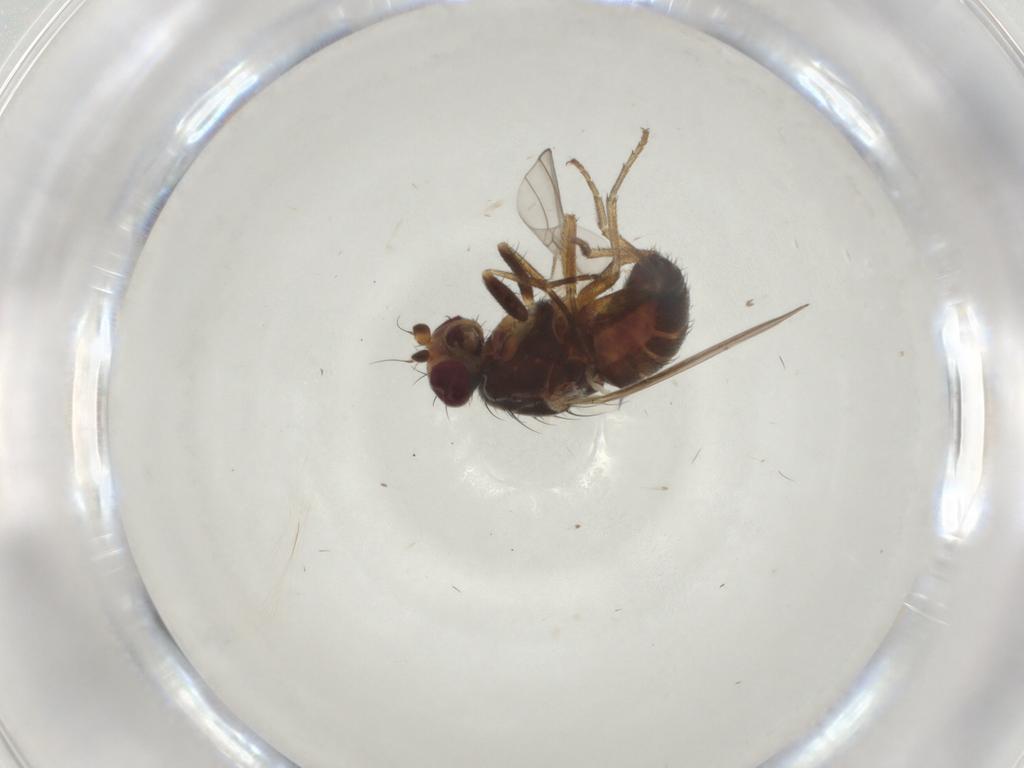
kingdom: Animalia
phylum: Arthropoda
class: Insecta
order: Diptera
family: Heleomyzidae
